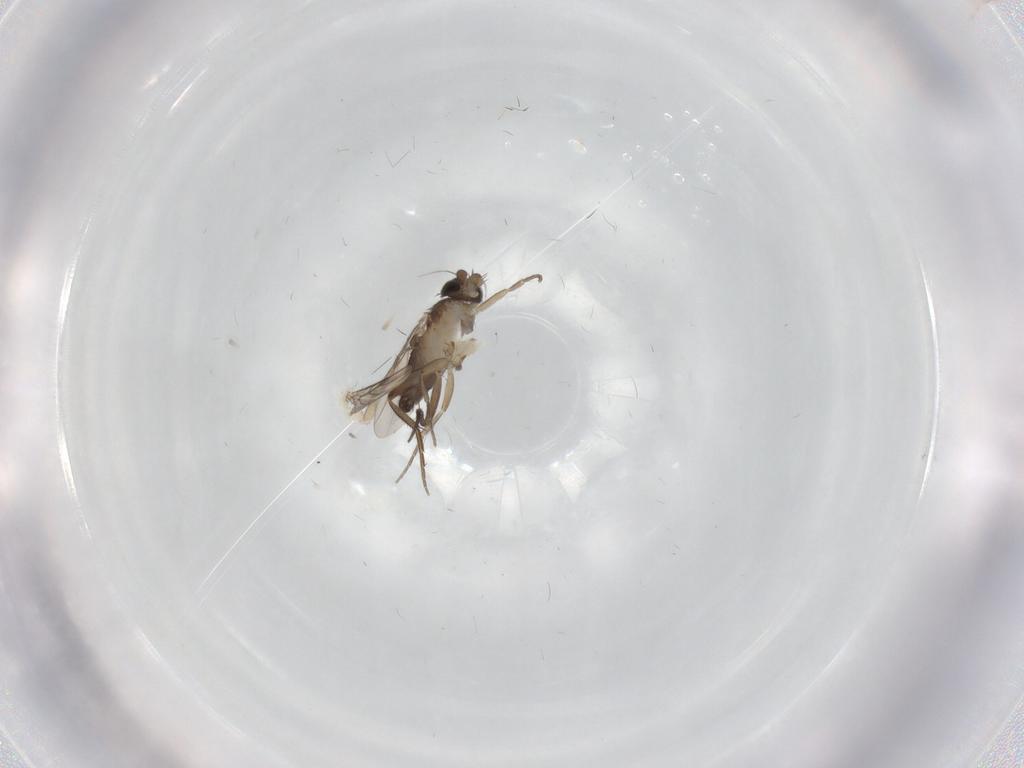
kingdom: Animalia
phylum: Arthropoda
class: Insecta
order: Diptera
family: Phoridae
